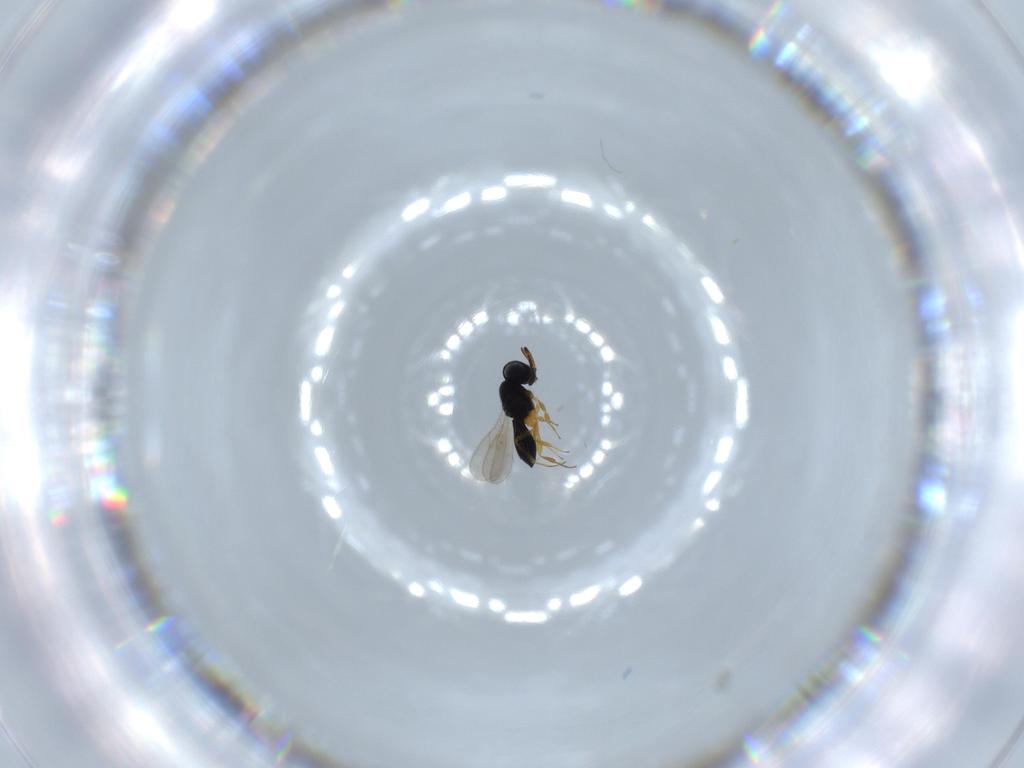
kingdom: Animalia
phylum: Arthropoda
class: Insecta
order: Hymenoptera
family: Scelionidae
